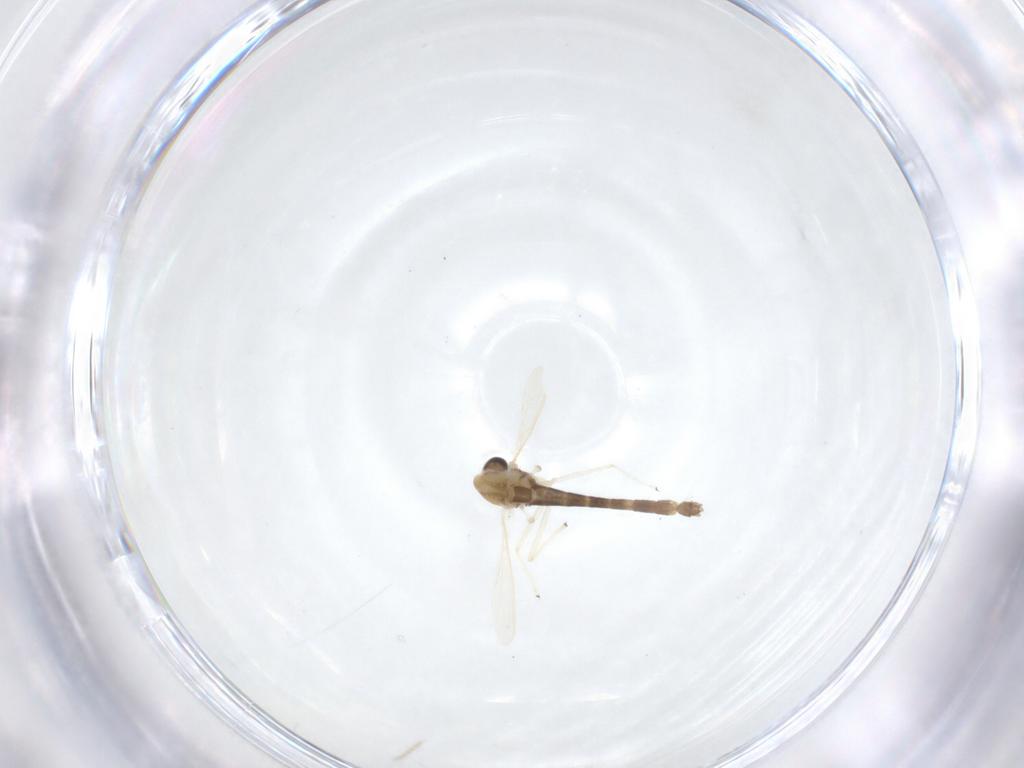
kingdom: Animalia
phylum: Arthropoda
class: Insecta
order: Diptera
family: Chironomidae
